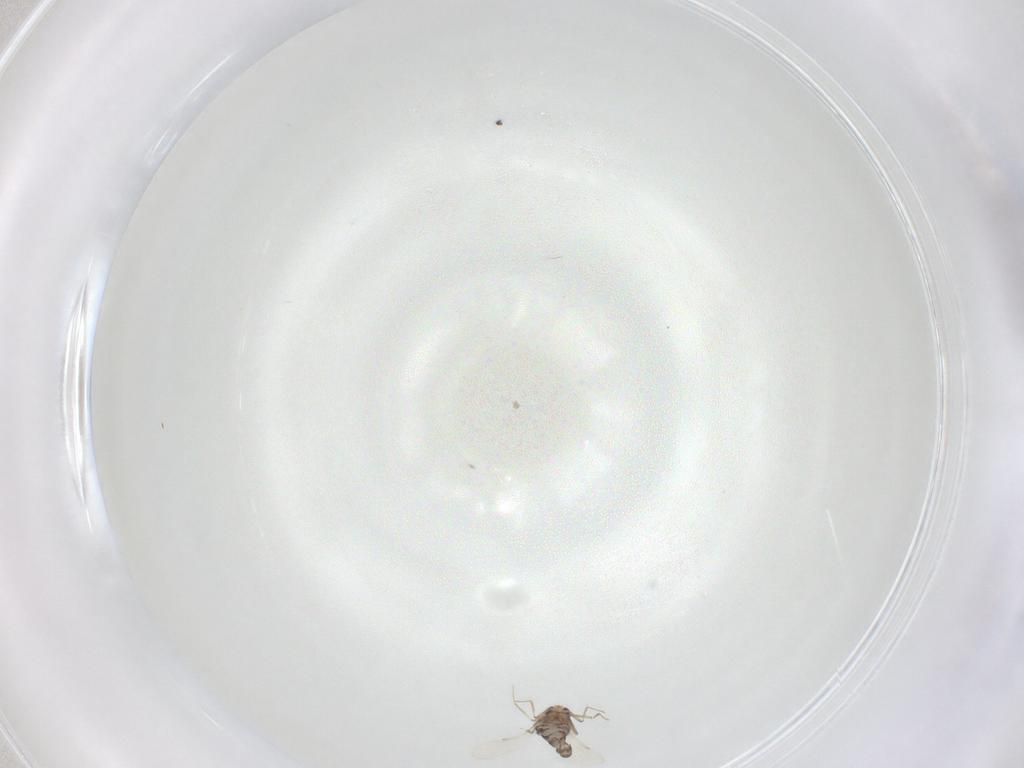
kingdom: Animalia
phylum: Arthropoda
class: Insecta
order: Diptera
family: Ceratopogonidae
